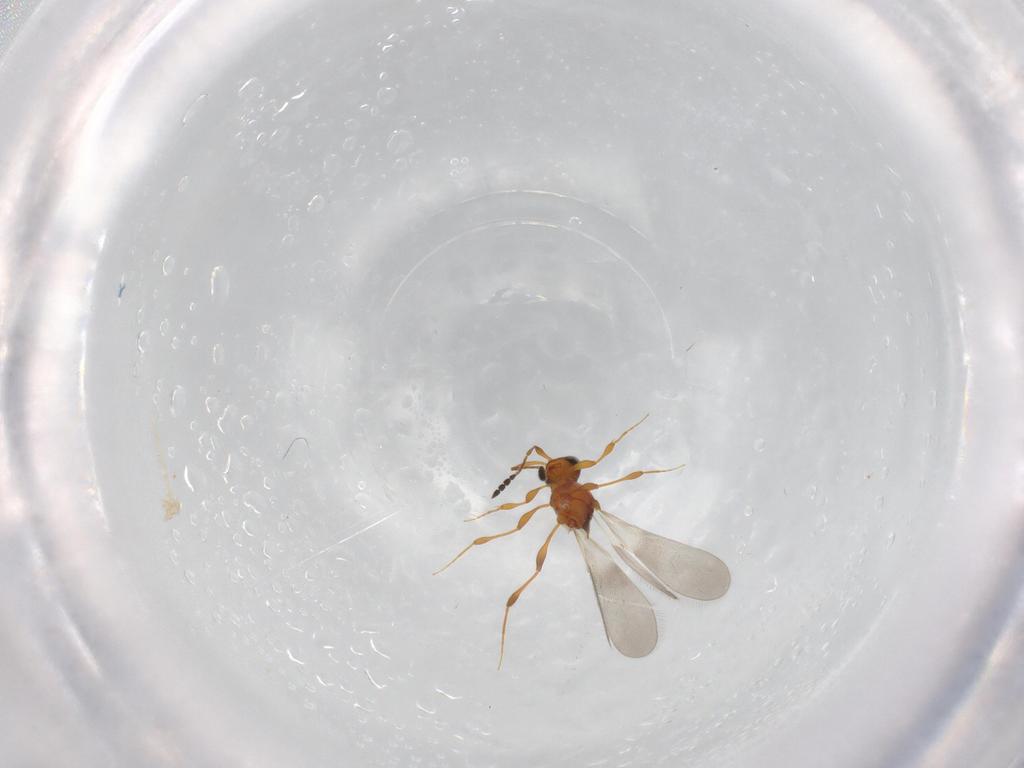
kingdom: Animalia
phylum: Arthropoda
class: Insecta
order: Hymenoptera
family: Platygastridae
